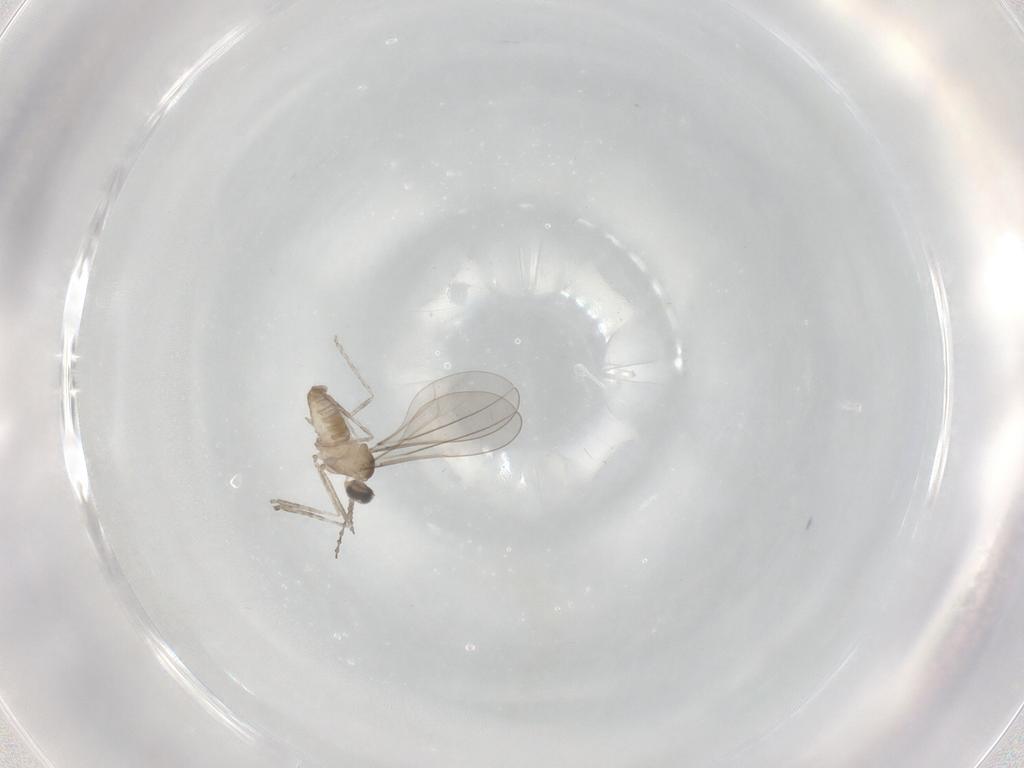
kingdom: Animalia
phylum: Arthropoda
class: Insecta
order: Diptera
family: Cecidomyiidae
